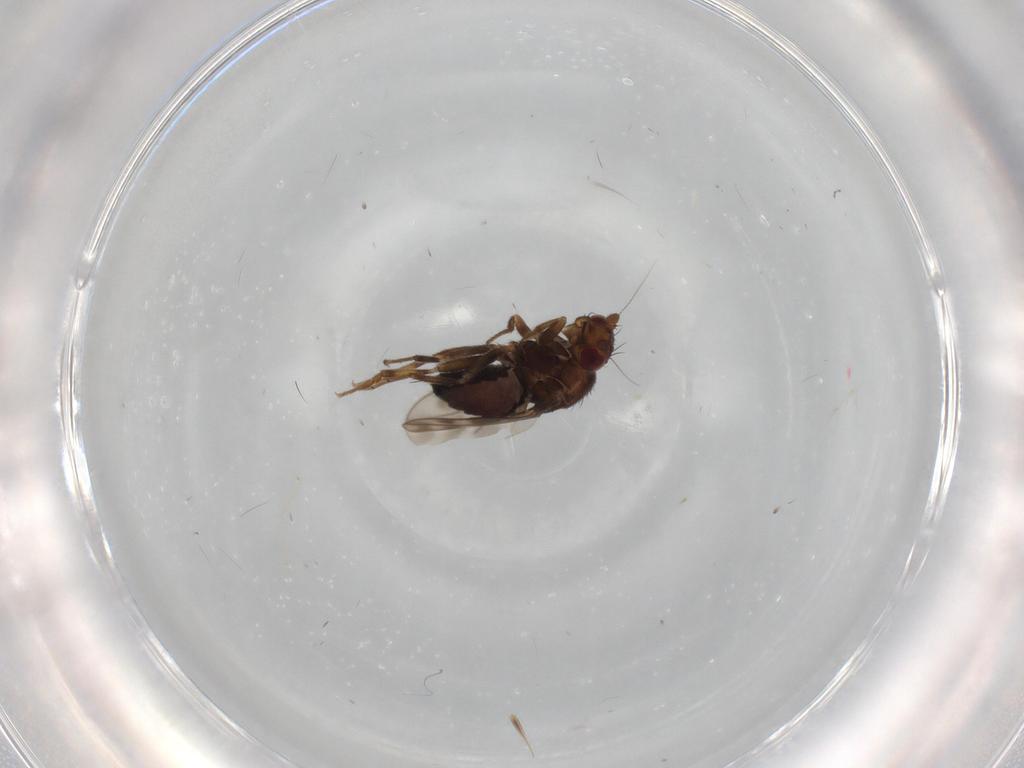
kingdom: Animalia
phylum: Arthropoda
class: Insecta
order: Diptera
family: Sphaeroceridae
